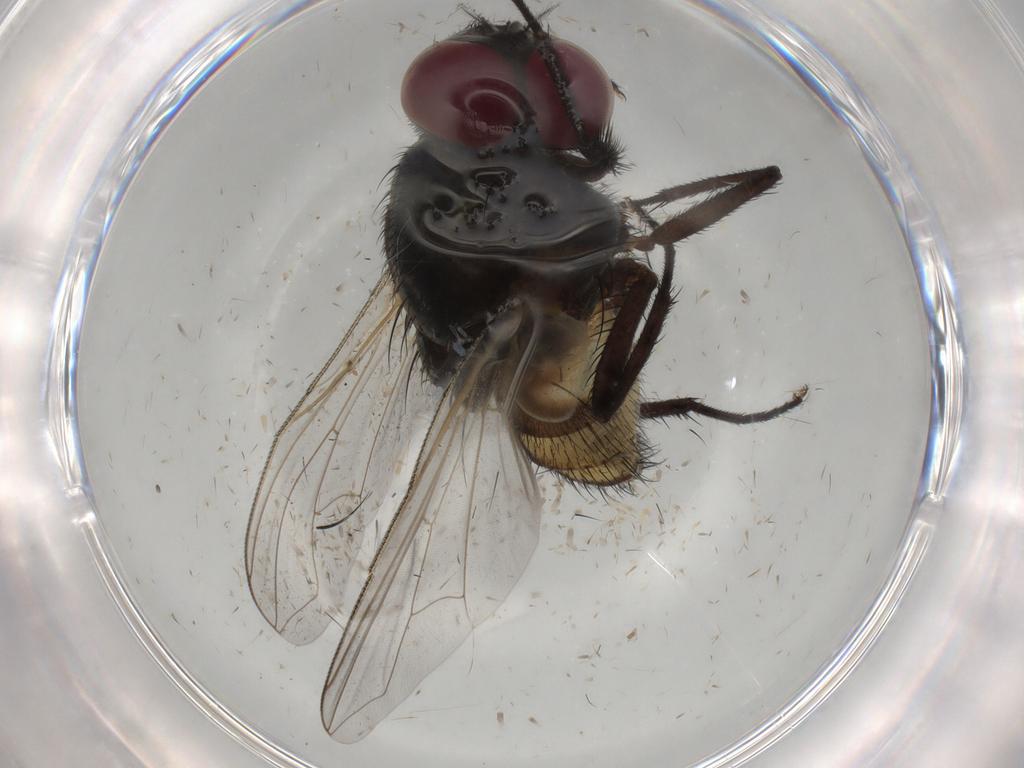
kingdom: Animalia
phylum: Arthropoda
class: Insecta
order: Diptera
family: Muscidae
